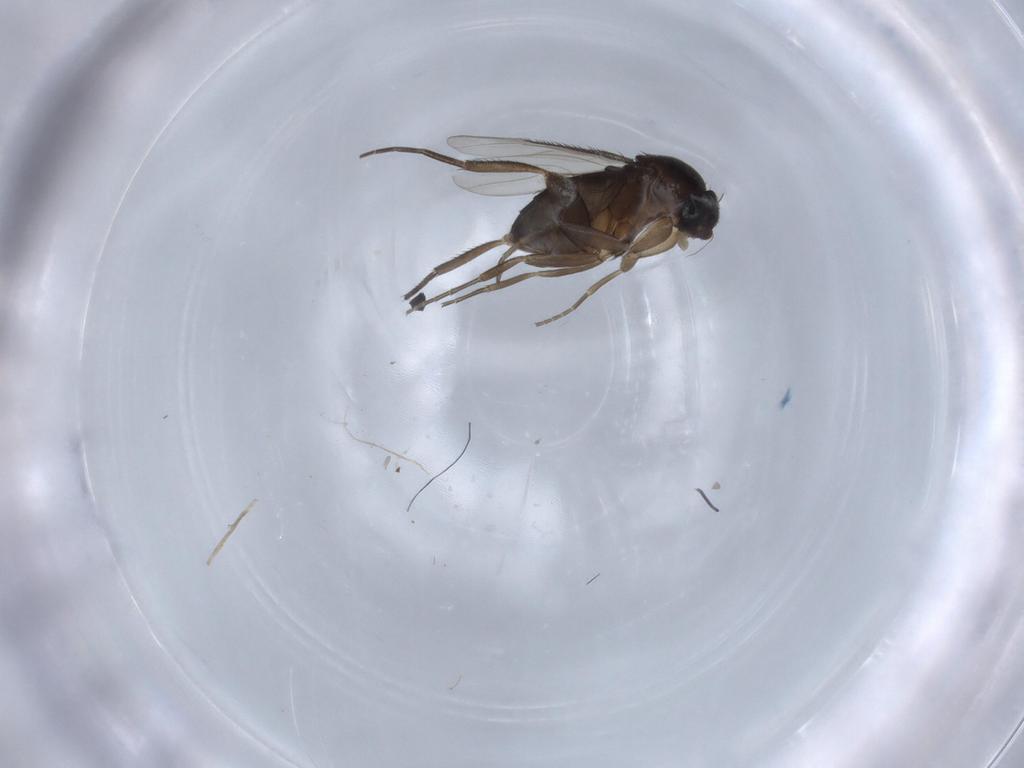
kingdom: Animalia
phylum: Arthropoda
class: Insecta
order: Diptera
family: Phoridae
